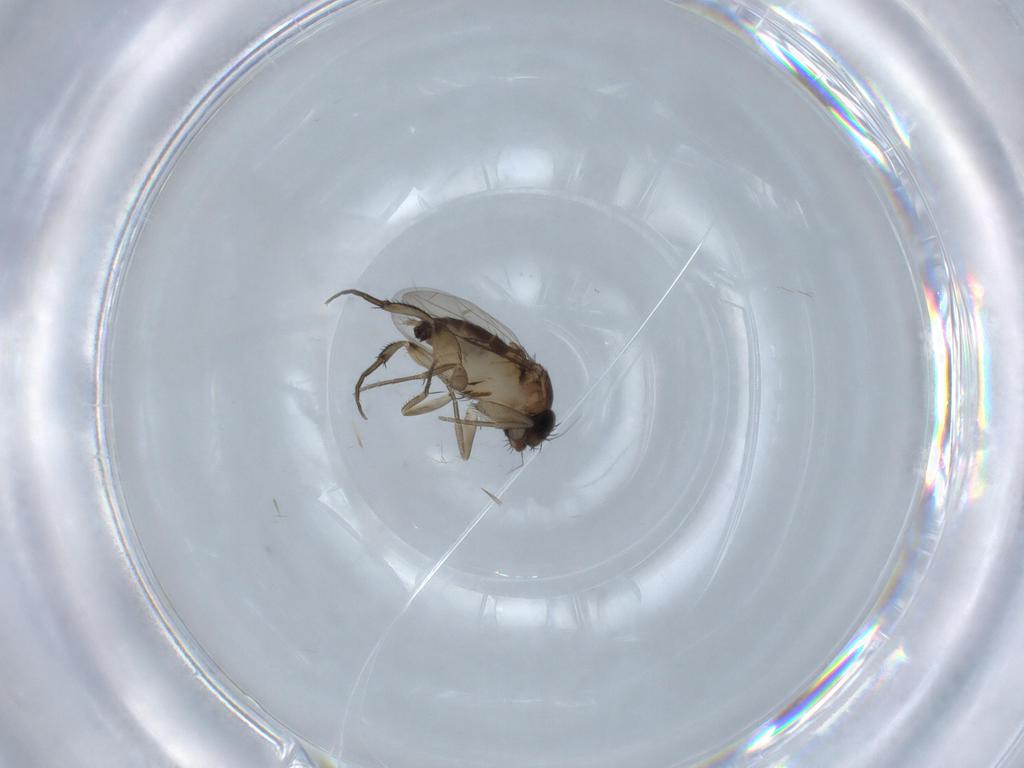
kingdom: Animalia
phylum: Arthropoda
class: Insecta
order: Diptera
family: Phoridae
